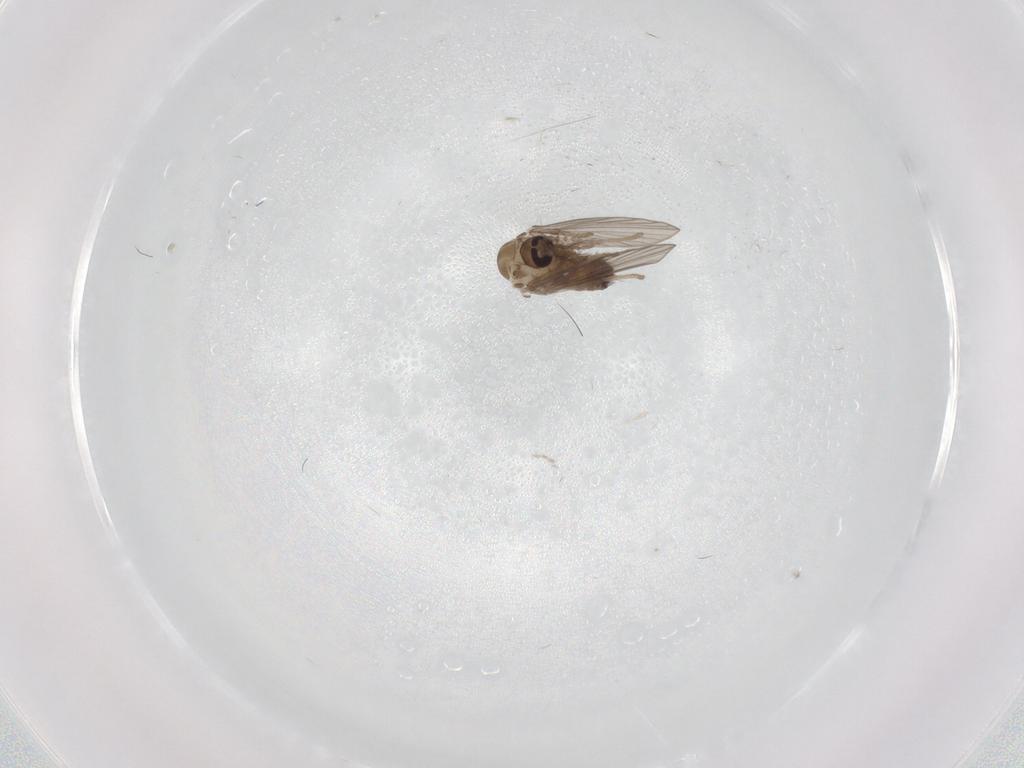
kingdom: Animalia
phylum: Arthropoda
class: Insecta
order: Diptera
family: Psychodidae
